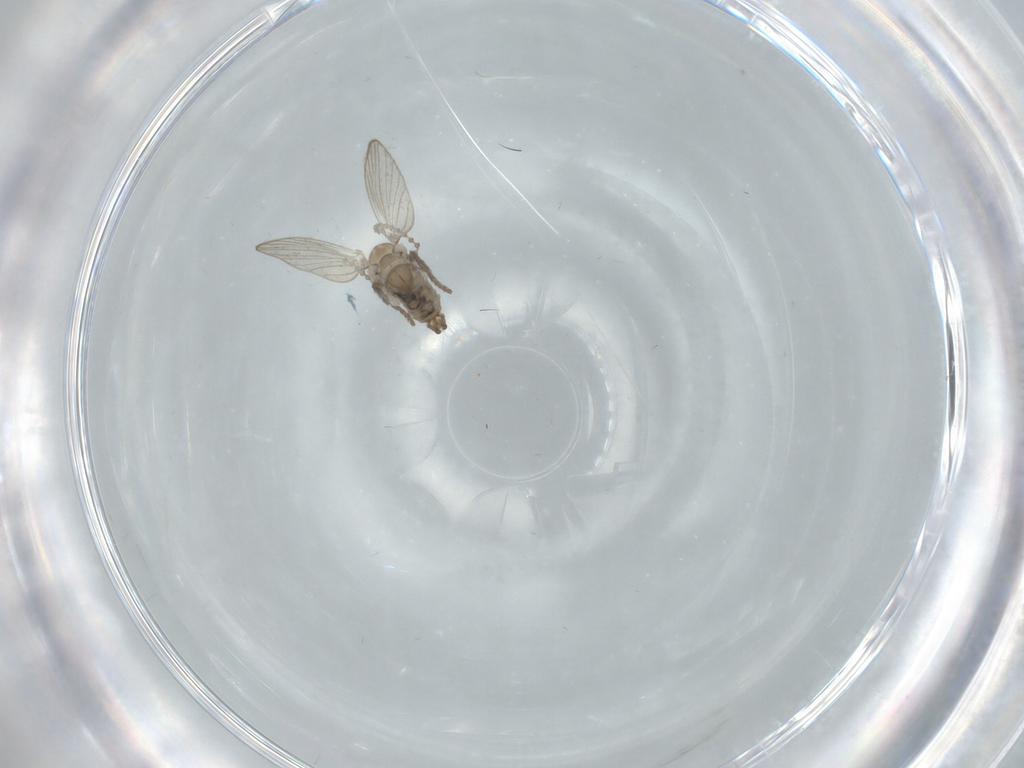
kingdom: Animalia
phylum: Arthropoda
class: Insecta
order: Diptera
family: Psychodidae
